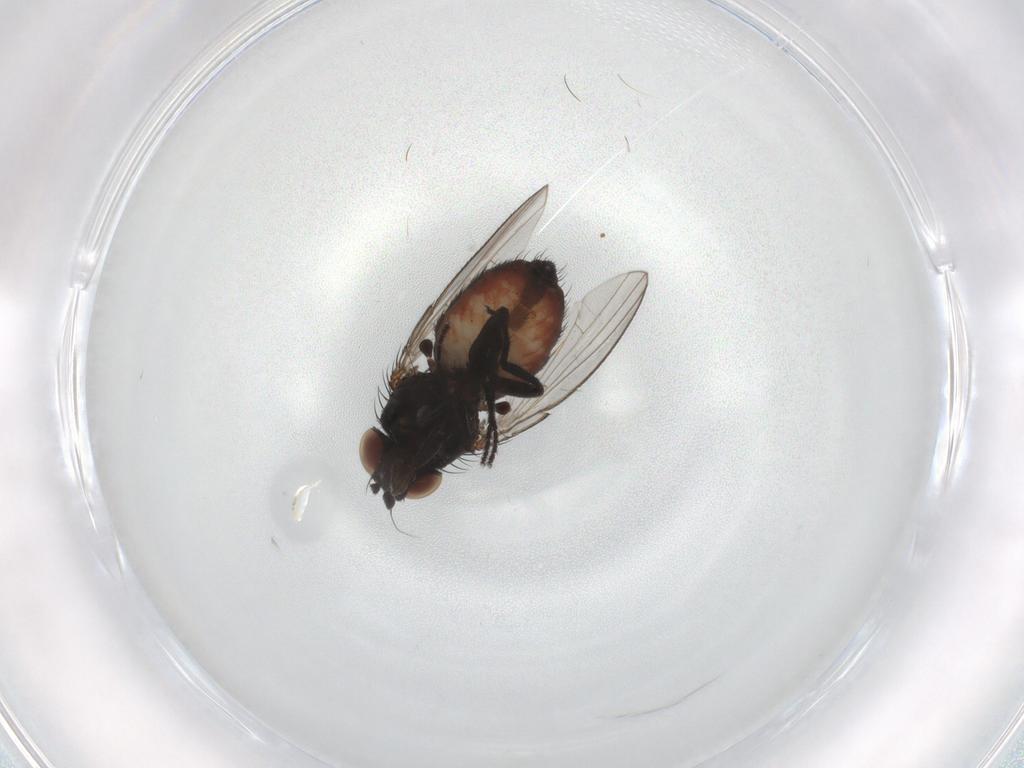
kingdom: Animalia
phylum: Arthropoda
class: Insecta
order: Diptera
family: Milichiidae
